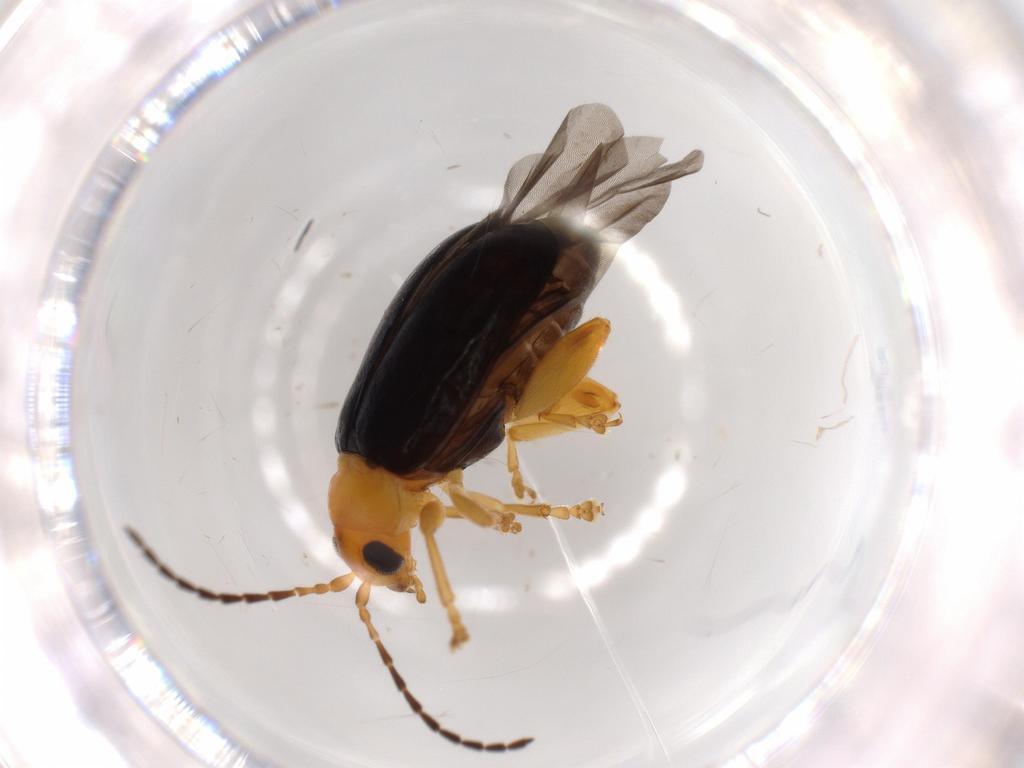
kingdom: Animalia
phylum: Arthropoda
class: Insecta
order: Coleoptera
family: Chrysomelidae
